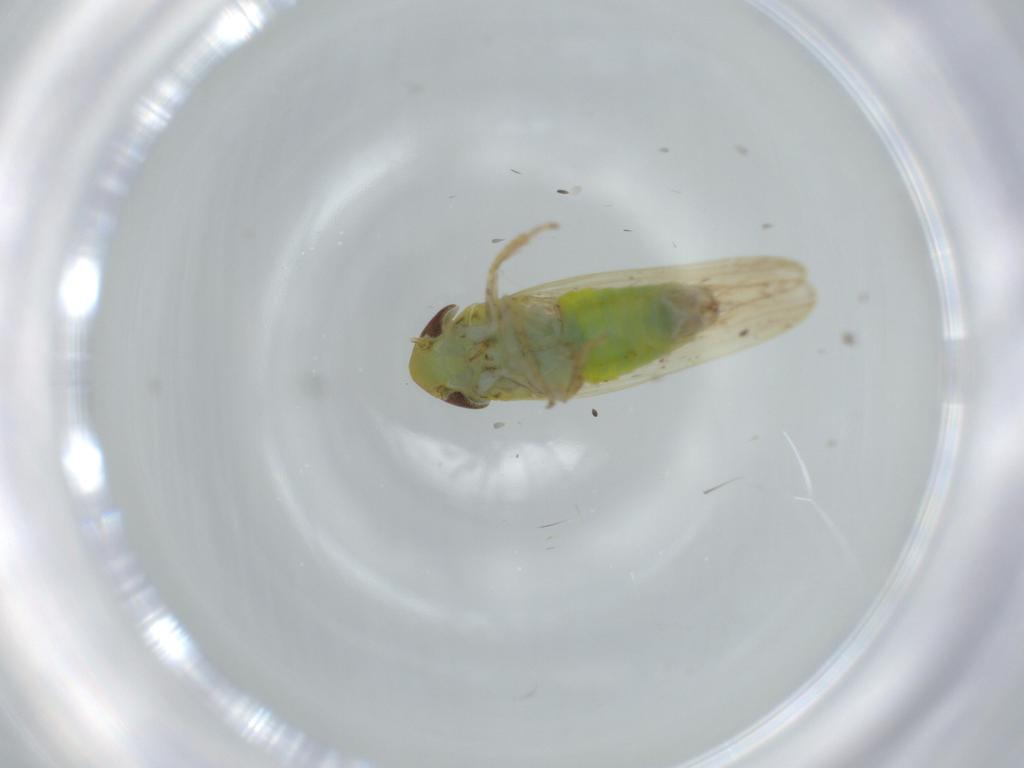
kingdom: Animalia
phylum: Arthropoda
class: Insecta
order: Hemiptera
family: Cicadellidae
